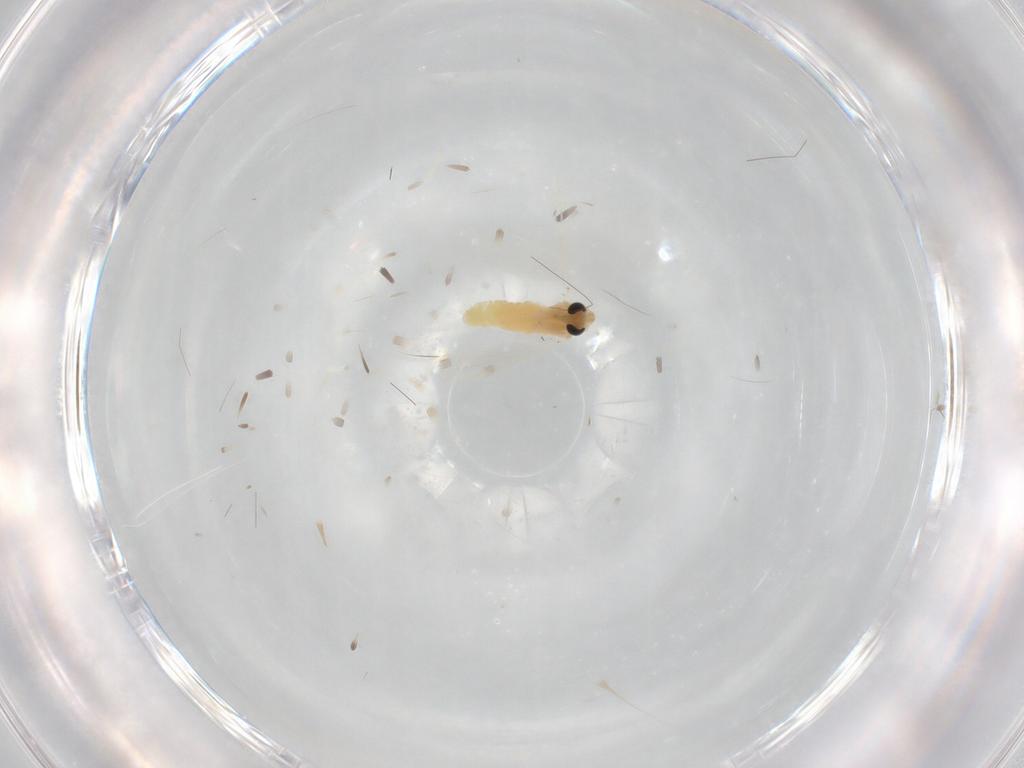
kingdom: Animalia
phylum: Arthropoda
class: Insecta
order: Diptera
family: Chironomidae
